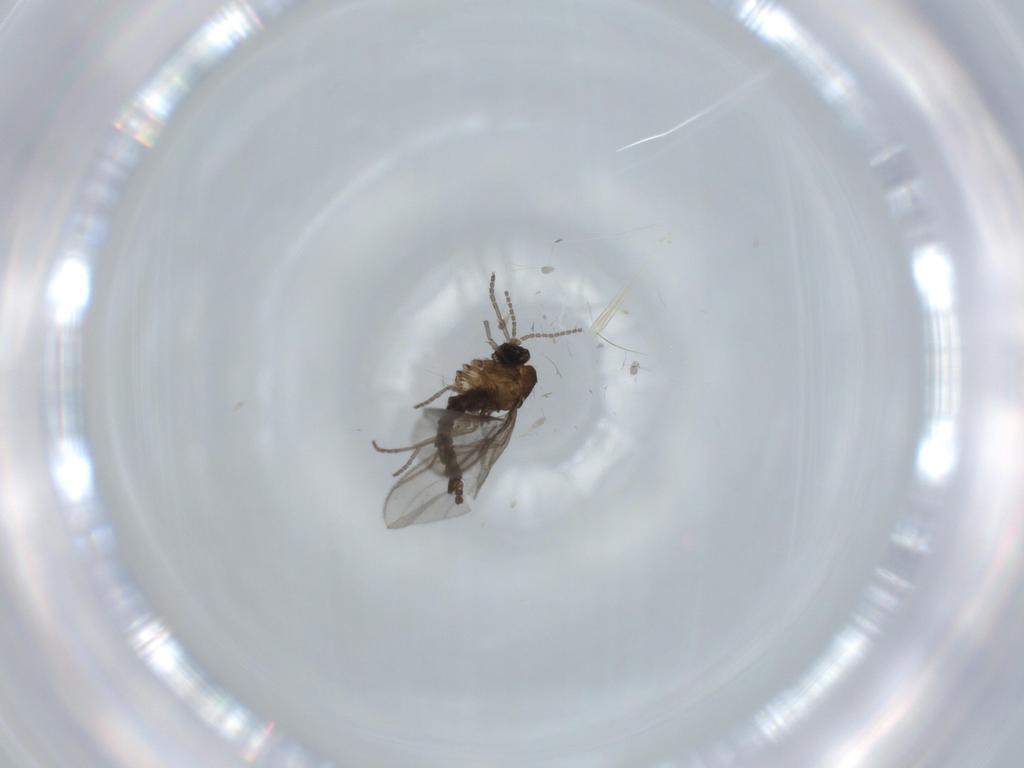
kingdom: Animalia
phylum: Arthropoda
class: Insecta
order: Diptera
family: Sciaridae
